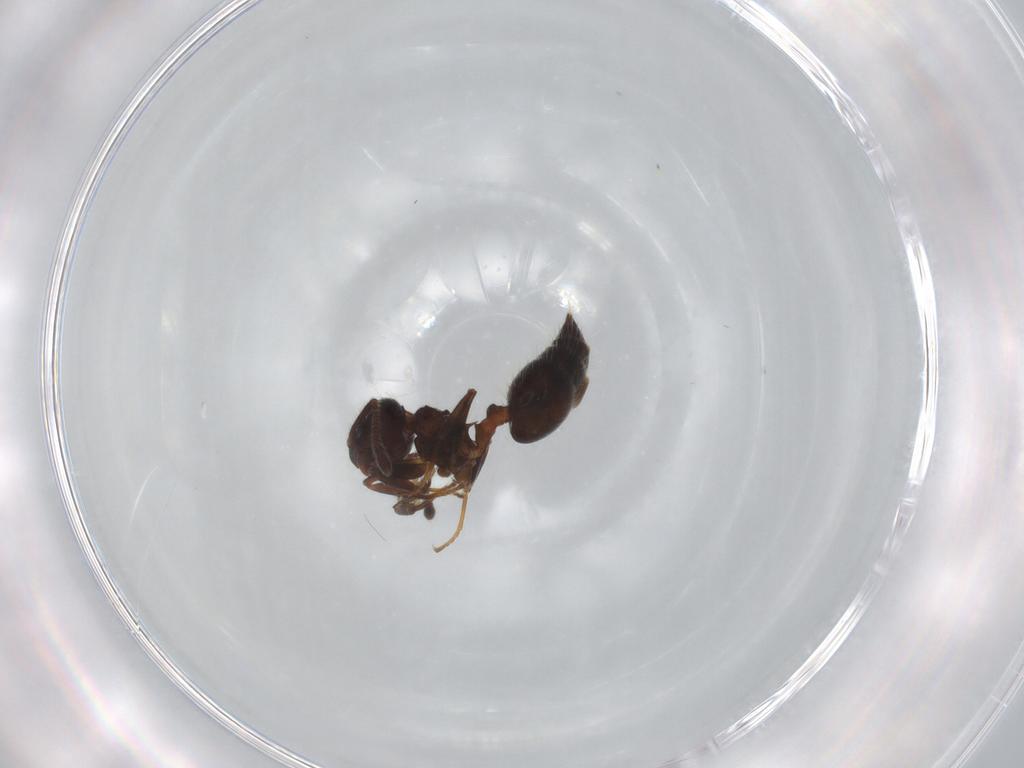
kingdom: Animalia
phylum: Arthropoda
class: Insecta
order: Hymenoptera
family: Formicidae
